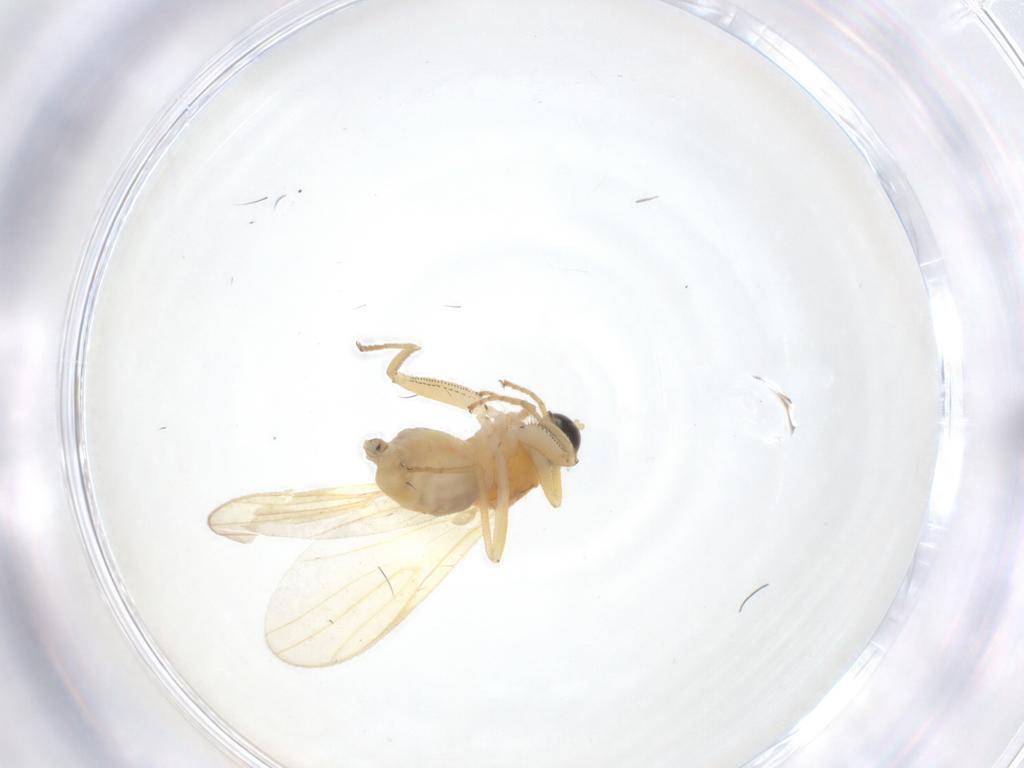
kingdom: Animalia
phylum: Arthropoda
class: Insecta
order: Diptera
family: Hybotidae
